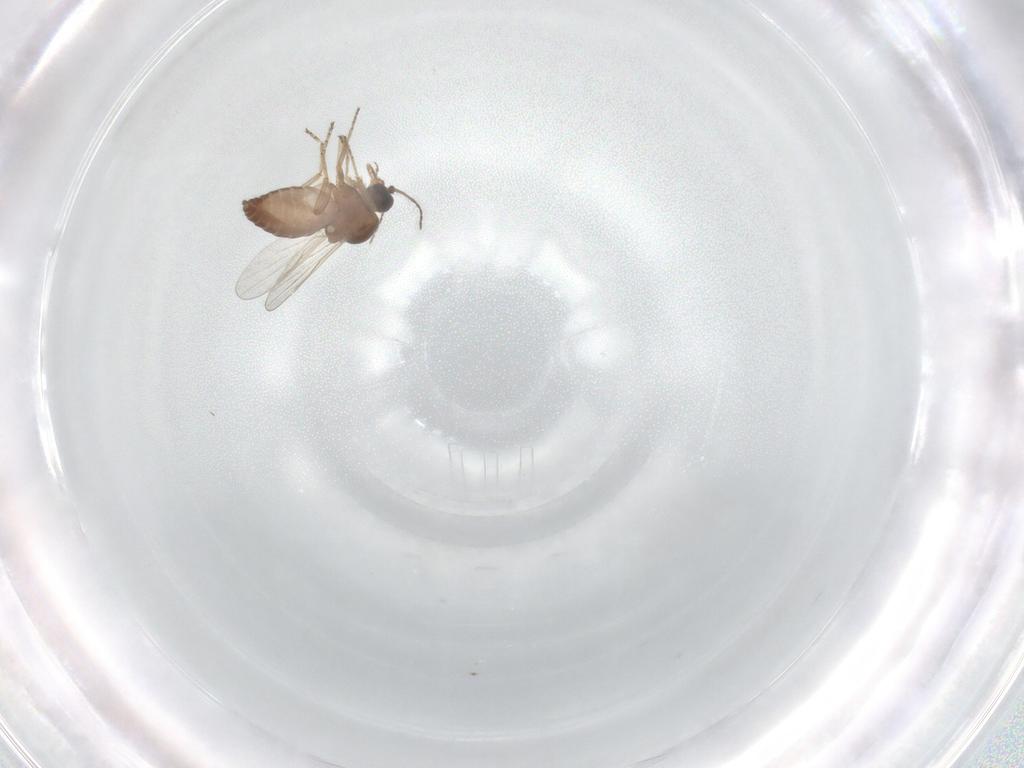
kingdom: Animalia
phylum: Arthropoda
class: Insecta
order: Diptera
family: Ceratopogonidae
